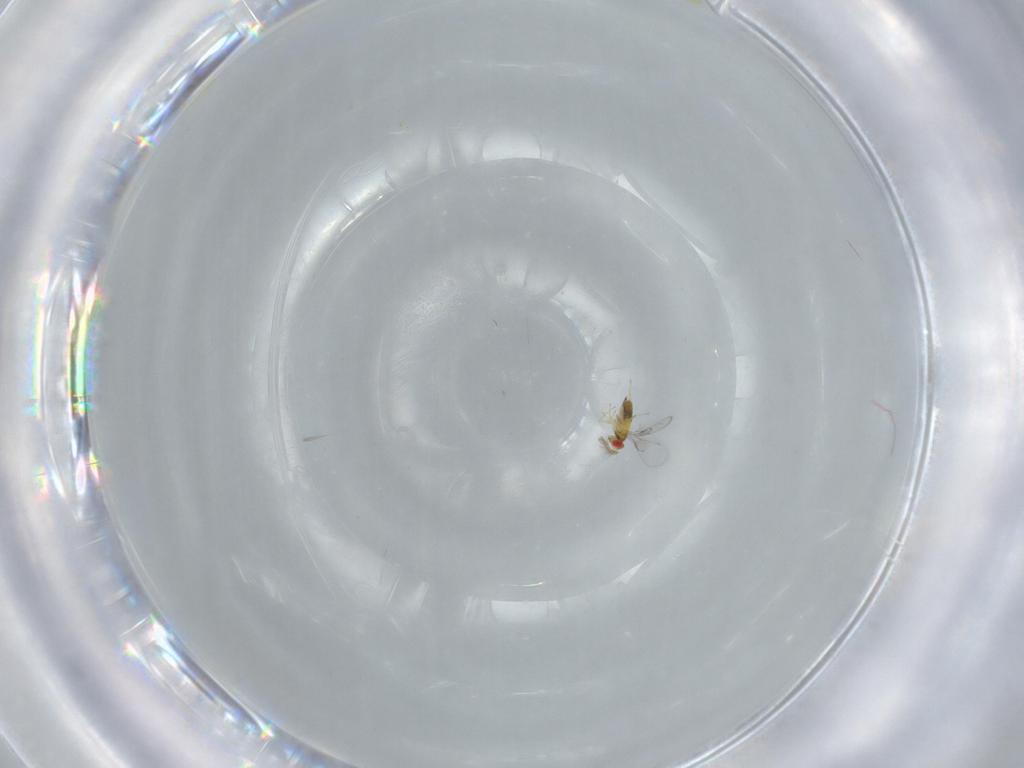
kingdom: Animalia
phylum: Arthropoda
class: Insecta
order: Hymenoptera
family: Trichogrammatidae
